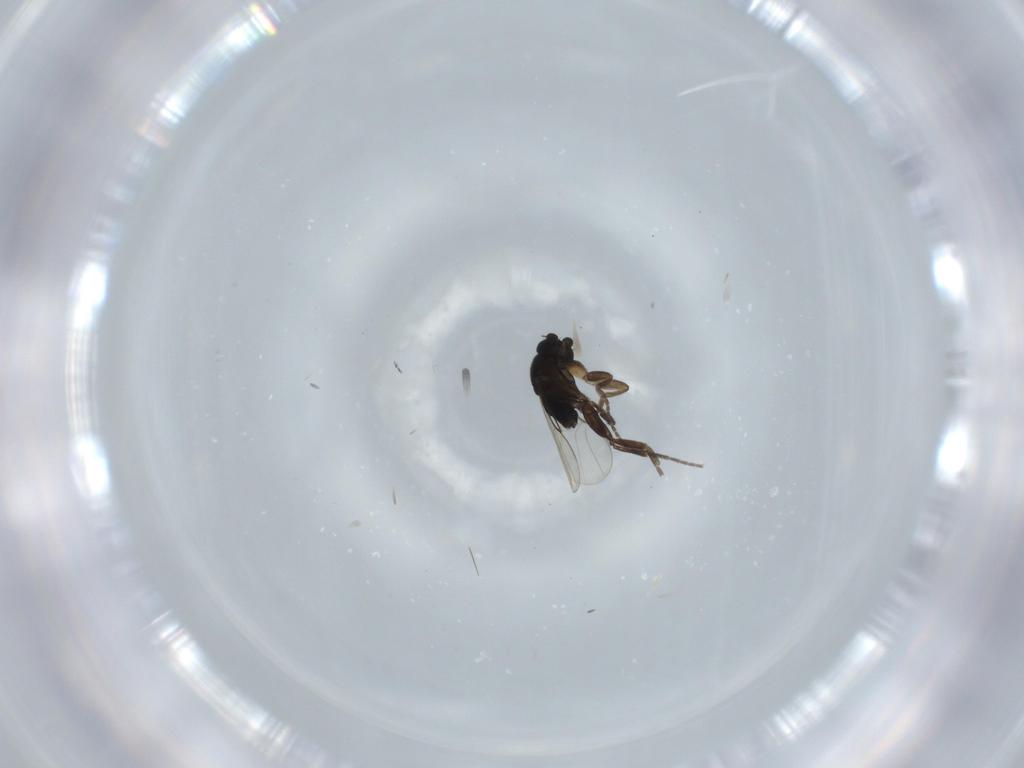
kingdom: Animalia
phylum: Arthropoda
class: Insecta
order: Diptera
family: Phoridae
